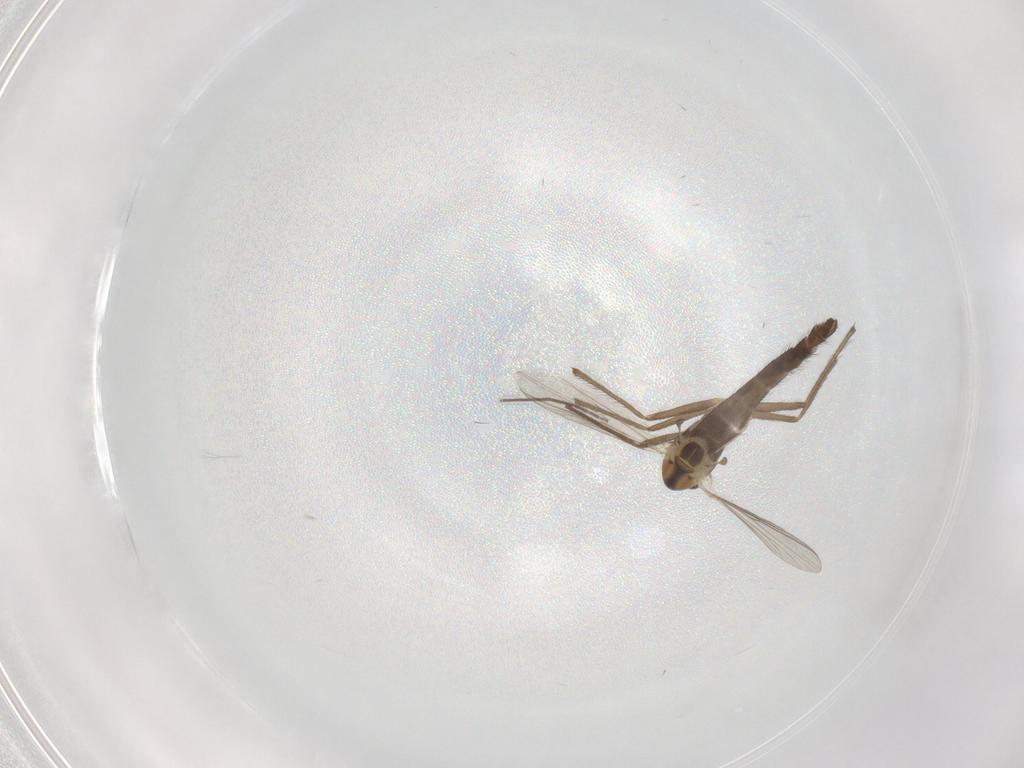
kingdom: Animalia
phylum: Arthropoda
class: Insecta
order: Diptera
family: Chironomidae
